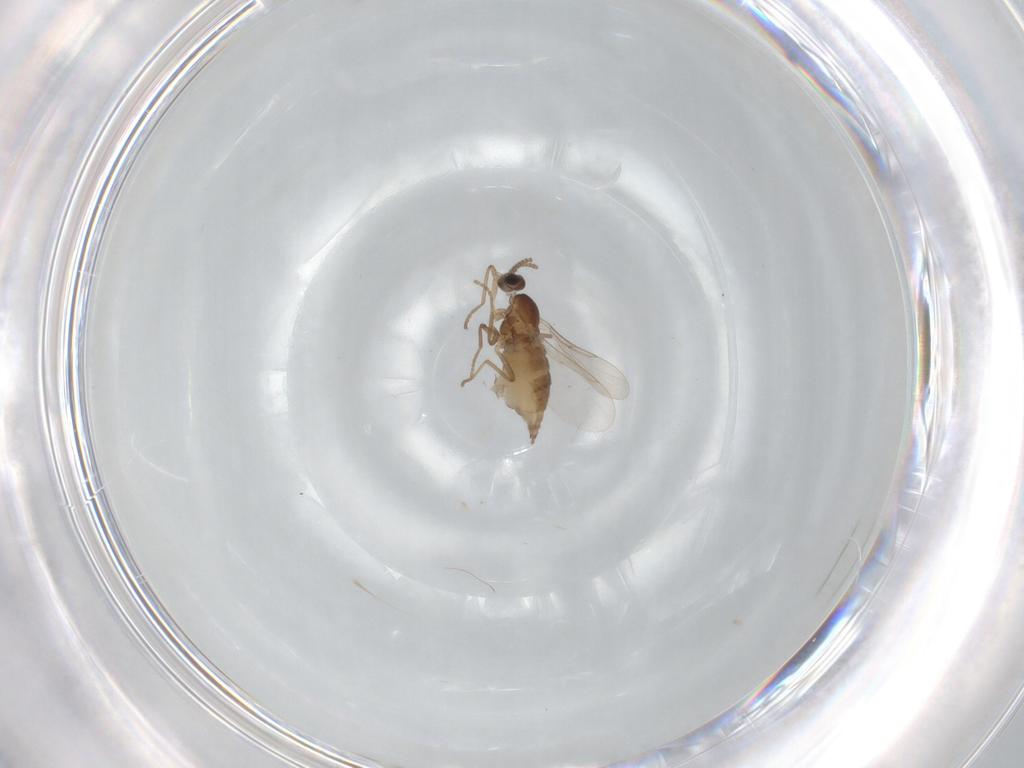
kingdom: Animalia
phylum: Arthropoda
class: Insecta
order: Diptera
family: Cecidomyiidae
